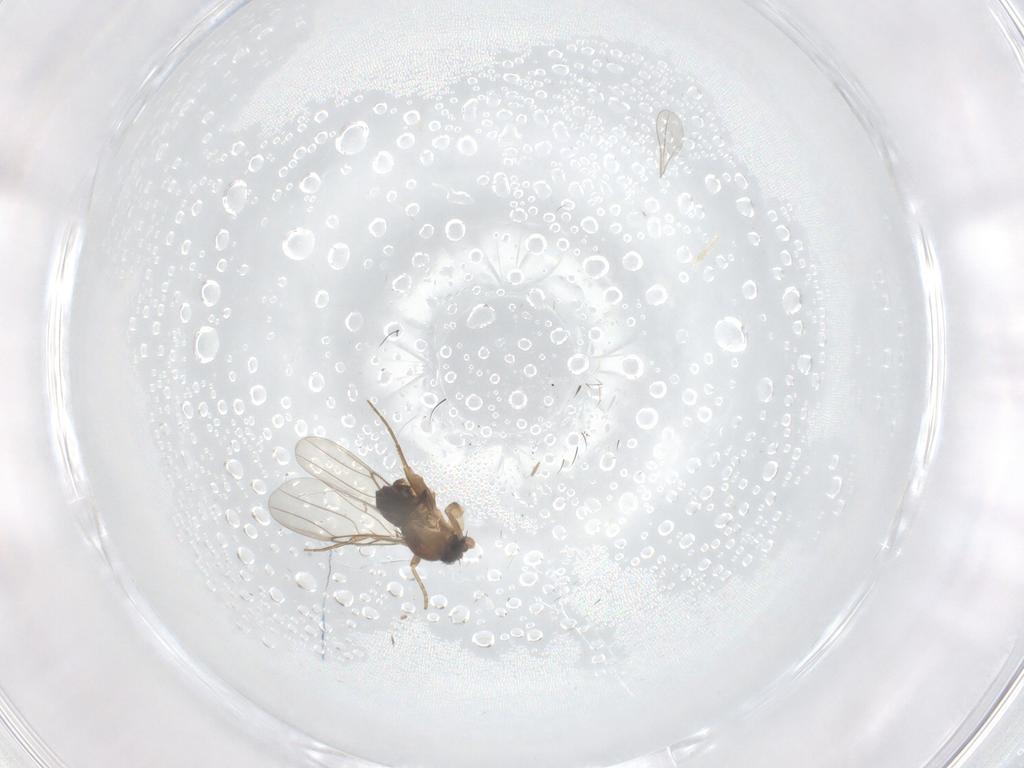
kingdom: Animalia
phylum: Arthropoda
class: Insecta
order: Diptera
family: Phoridae
